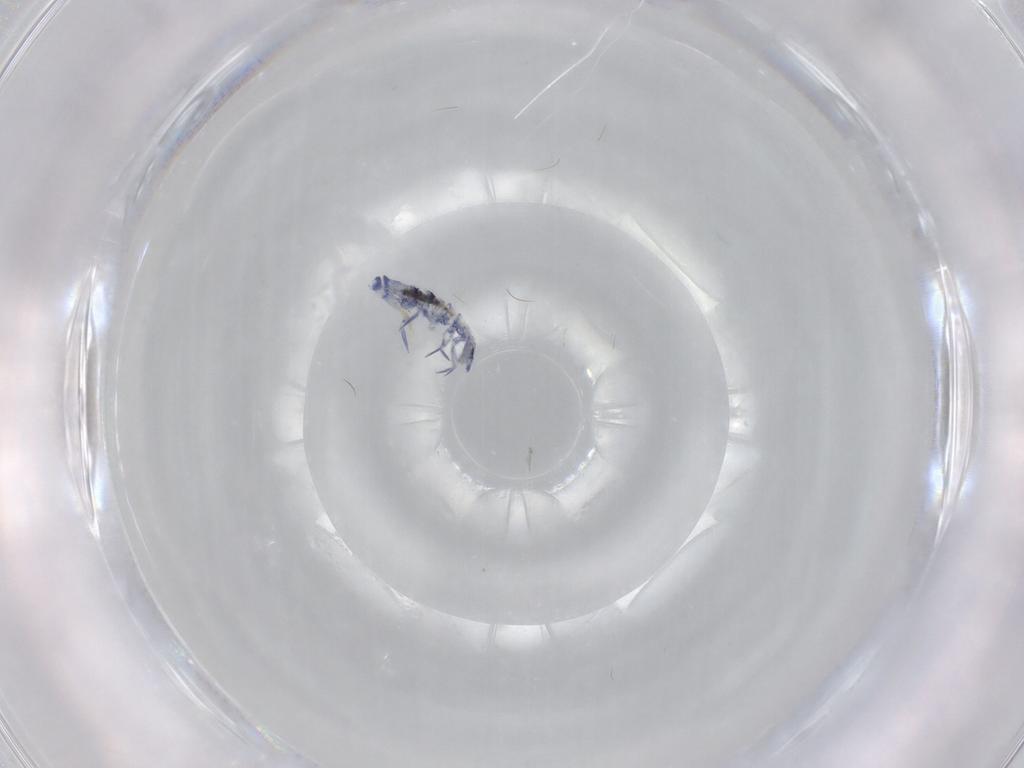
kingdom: Animalia
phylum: Arthropoda
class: Collembola
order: Entomobryomorpha
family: Entomobryidae
